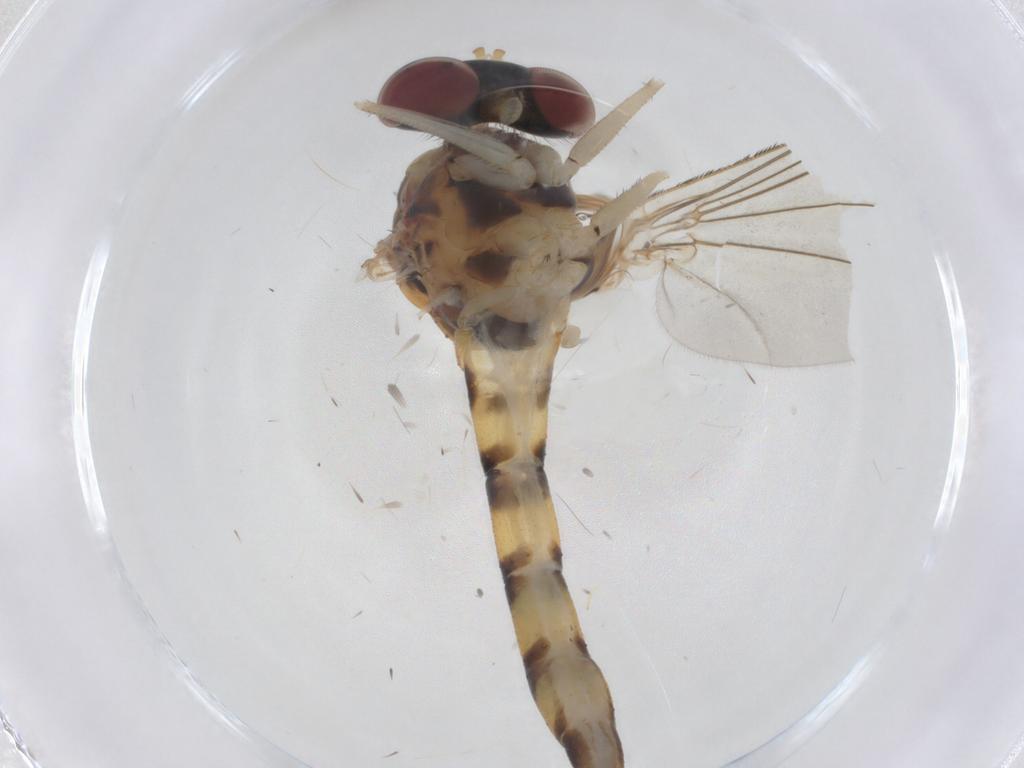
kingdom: Animalia
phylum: Arthropoda
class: Insecta
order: Diptera
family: Dolichopodidae
